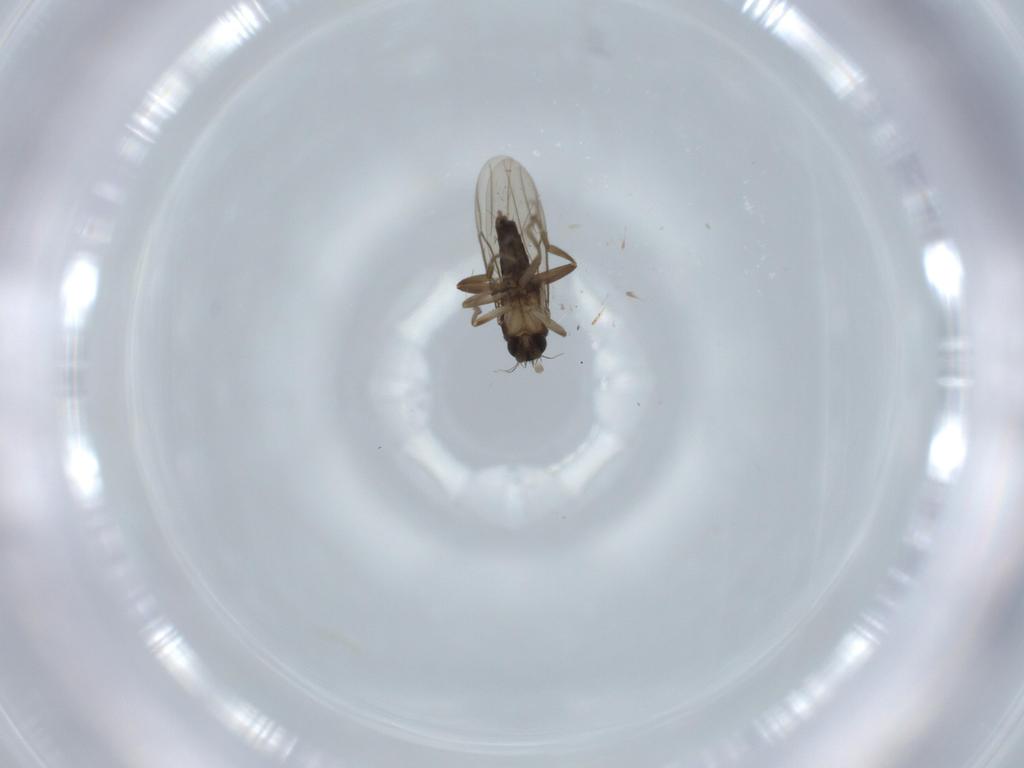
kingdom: Animalia
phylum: Arthropoda
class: Insecta
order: Diptera
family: Phoridae
